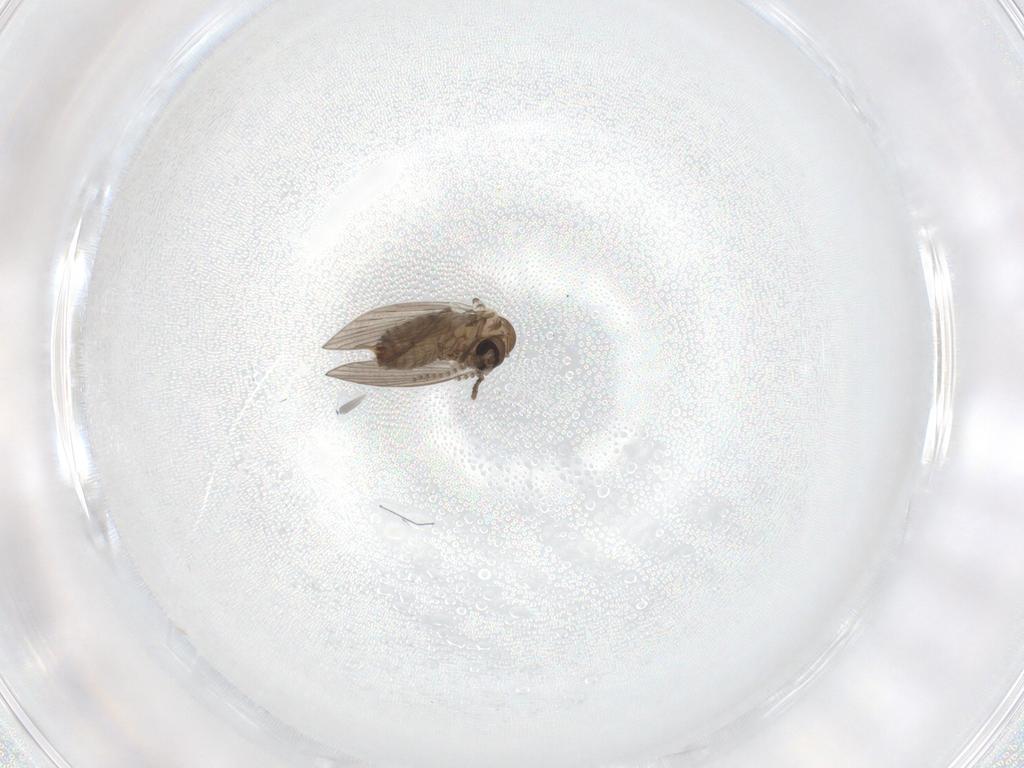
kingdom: Animalia
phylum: Arthropoda
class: Insecta
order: Diptera
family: Psychodidae
